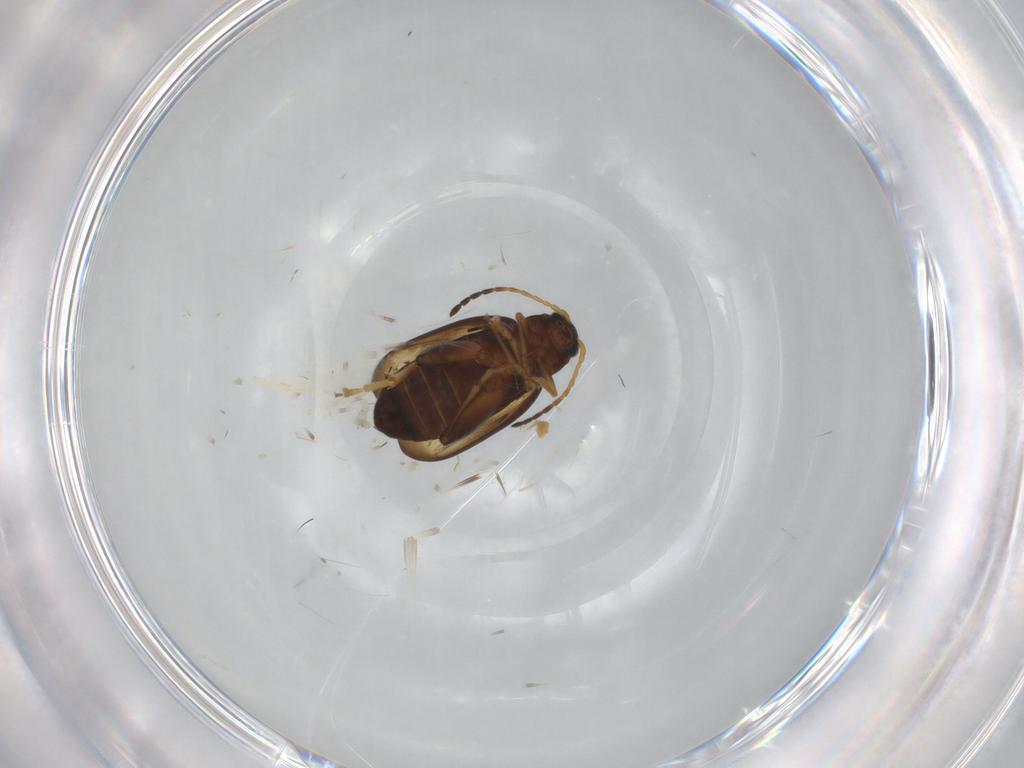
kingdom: Animalia
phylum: Arthropoda
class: Insecta
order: Coleoptera
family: Chrysomelidae
